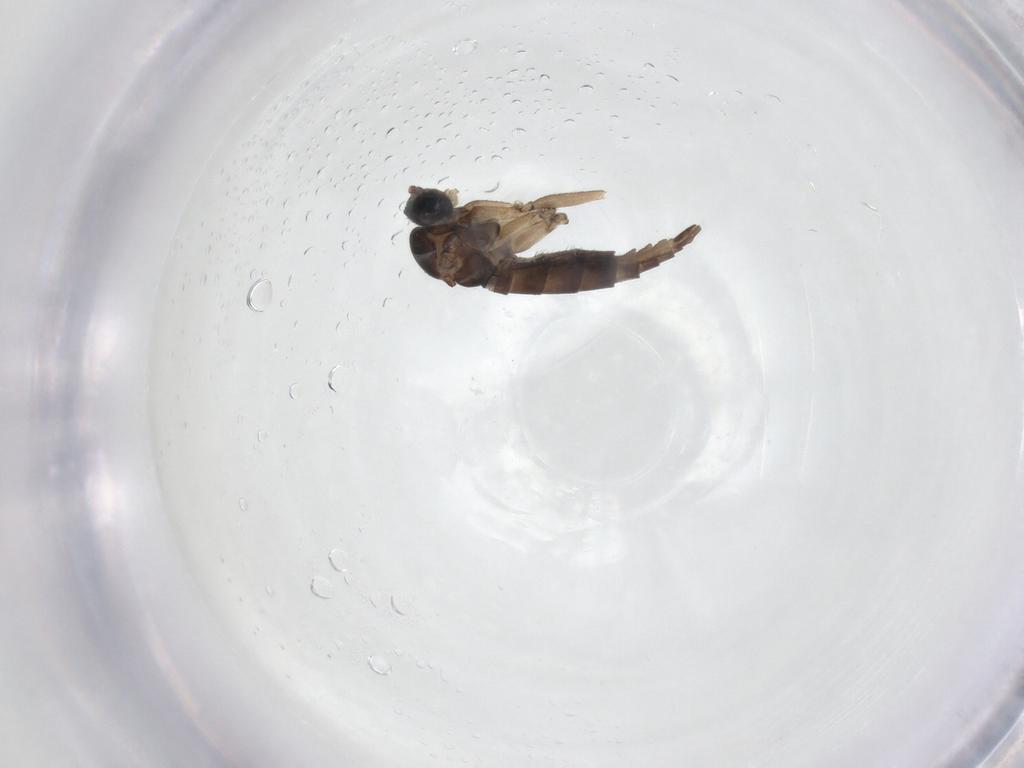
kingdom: Animalia
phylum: Arthropoda
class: Insecta
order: Diptera
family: Sciaridae
